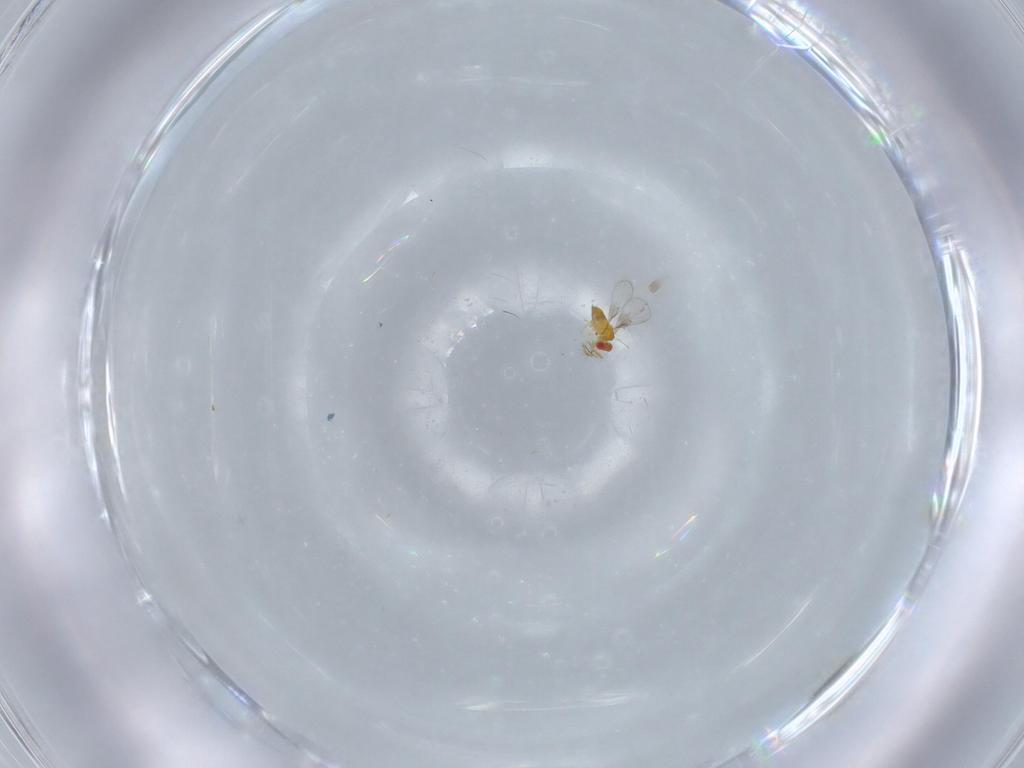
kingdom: Animalia
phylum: Arthropoda
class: Insecta
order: Hymenoptera
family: Trichogrammatidae
